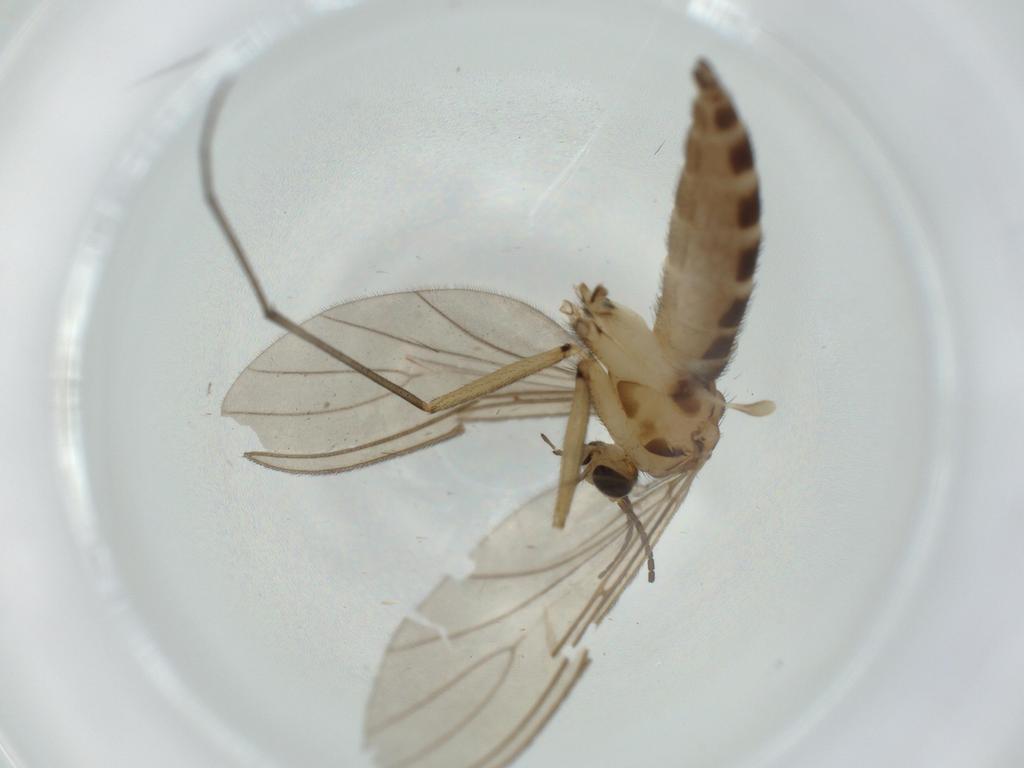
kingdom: Animalia
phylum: Arthropoda
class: Insecta
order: Diptera
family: Sciaridae
